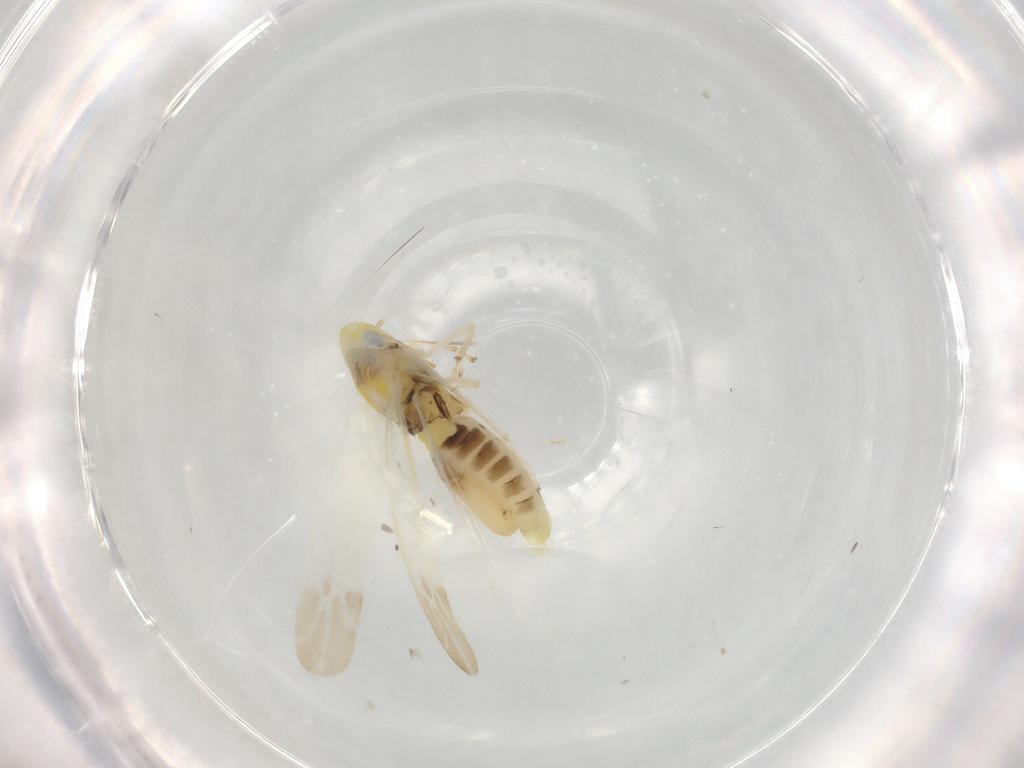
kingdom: Animalia
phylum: Arthropoda
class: Insecta
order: Hemiptera
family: Cicadellidae
